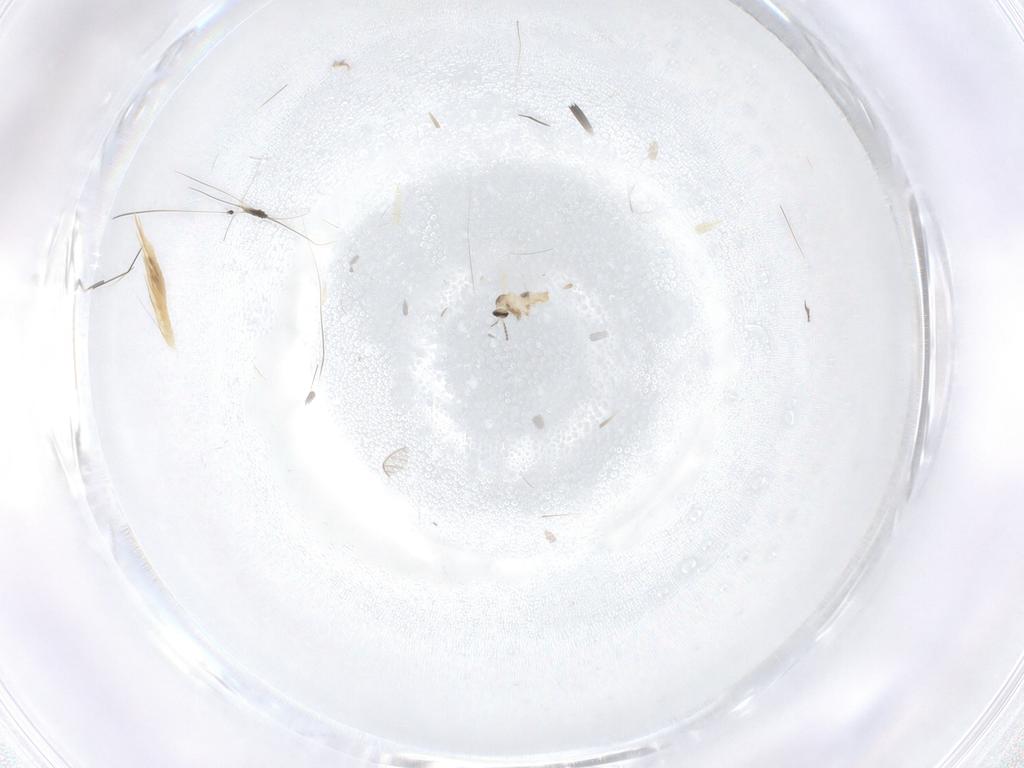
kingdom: Animalia
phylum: Arthropoda
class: Insecta
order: Diptera
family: Cecidomyiidae
